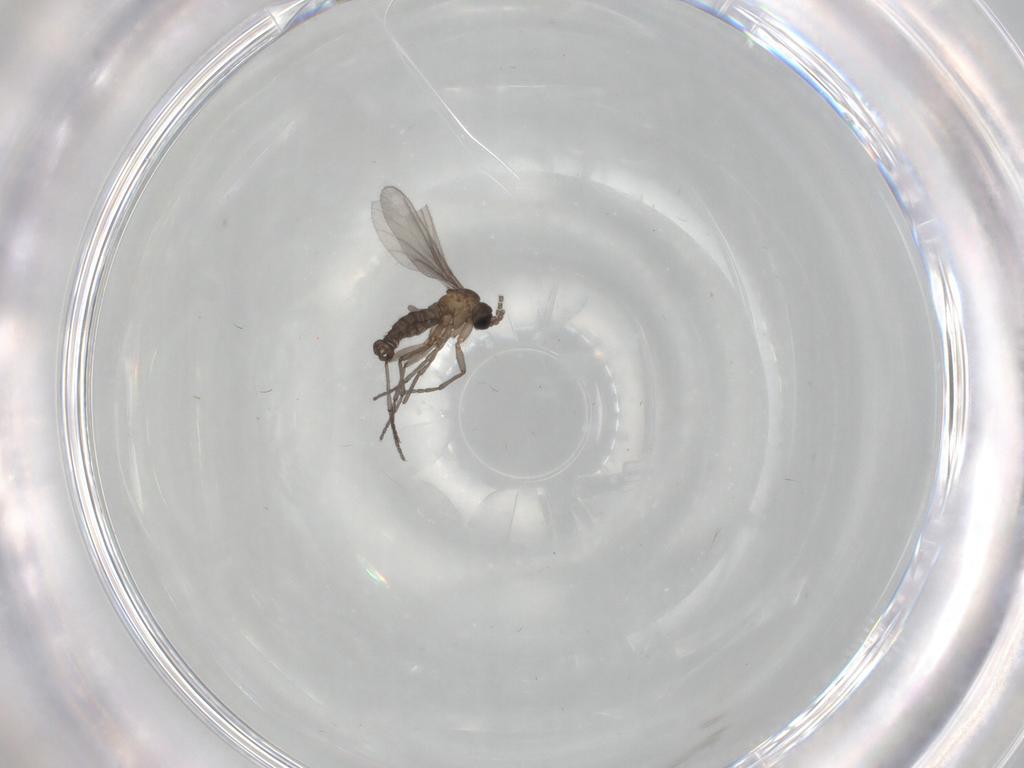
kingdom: Animalia
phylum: Arthropoda
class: Insecta
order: Diptera
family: Sciaridae
